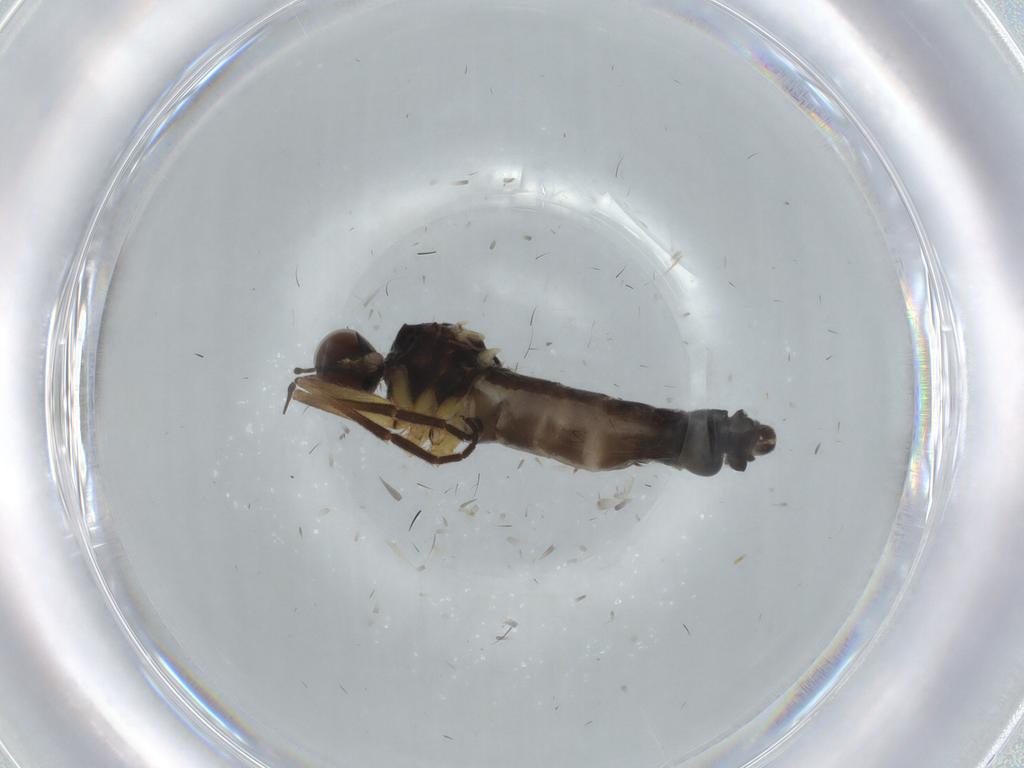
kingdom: Animalia
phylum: Arthropoda
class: Insecta
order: Diptera
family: Empididae
